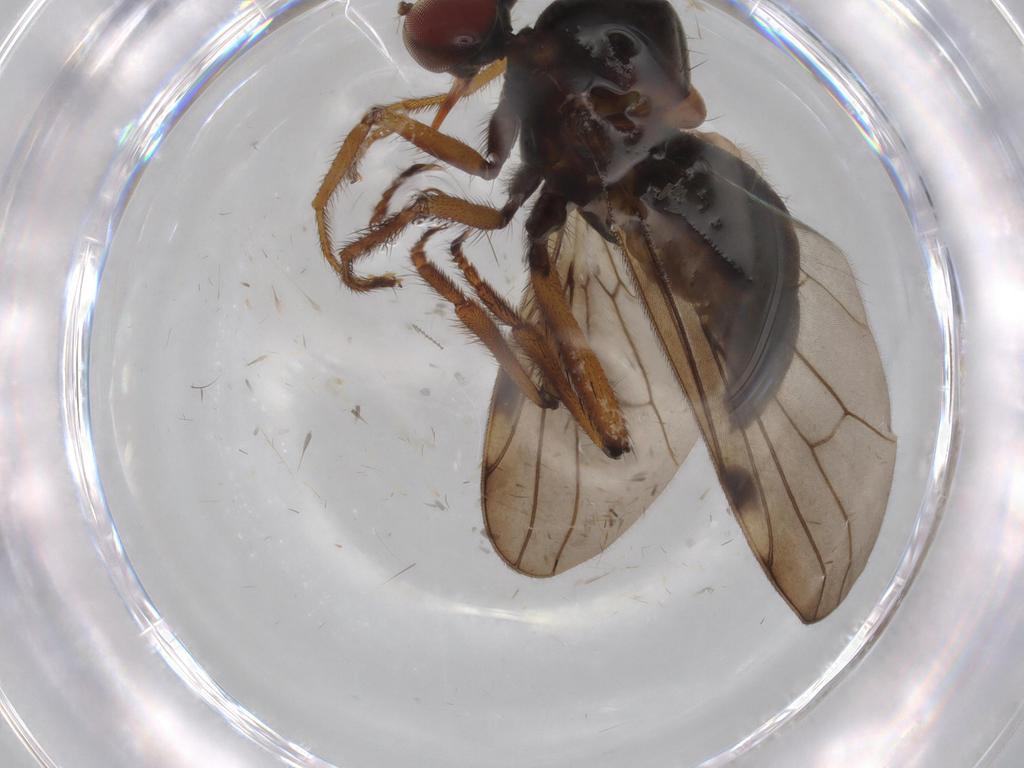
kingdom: Animalia
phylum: Arthropoda
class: Insecta
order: Diptera
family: Hybotidae
